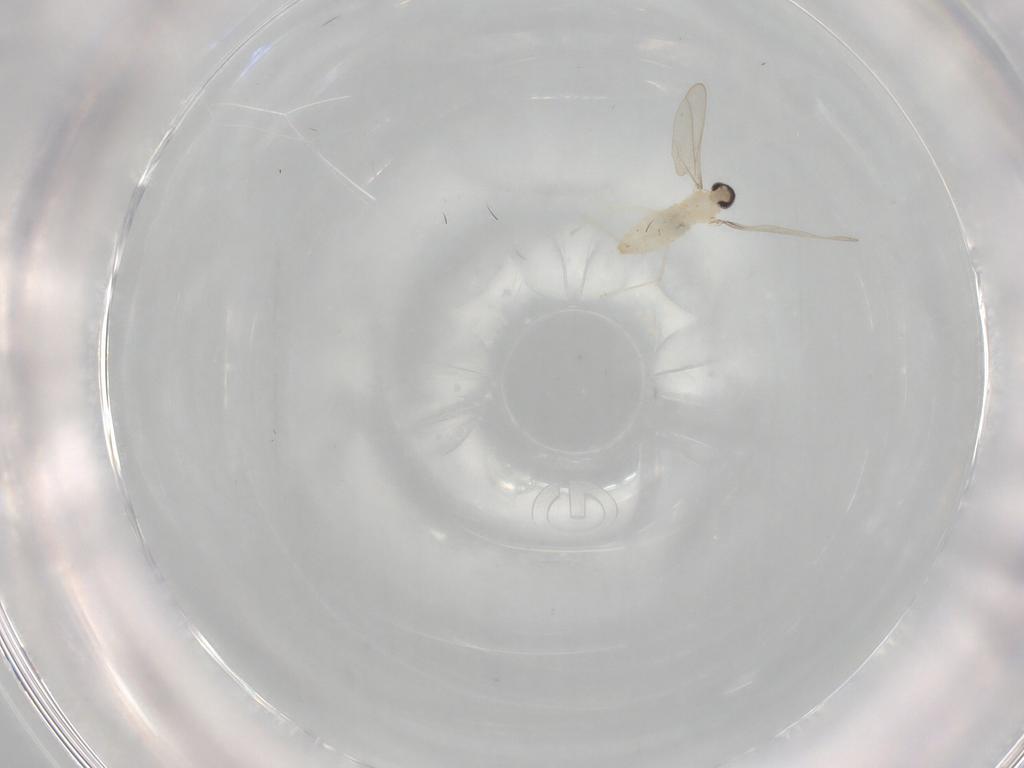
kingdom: Animalia
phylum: Arthropoda
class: Insecta
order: Diptera
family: Cecidomyiidae
